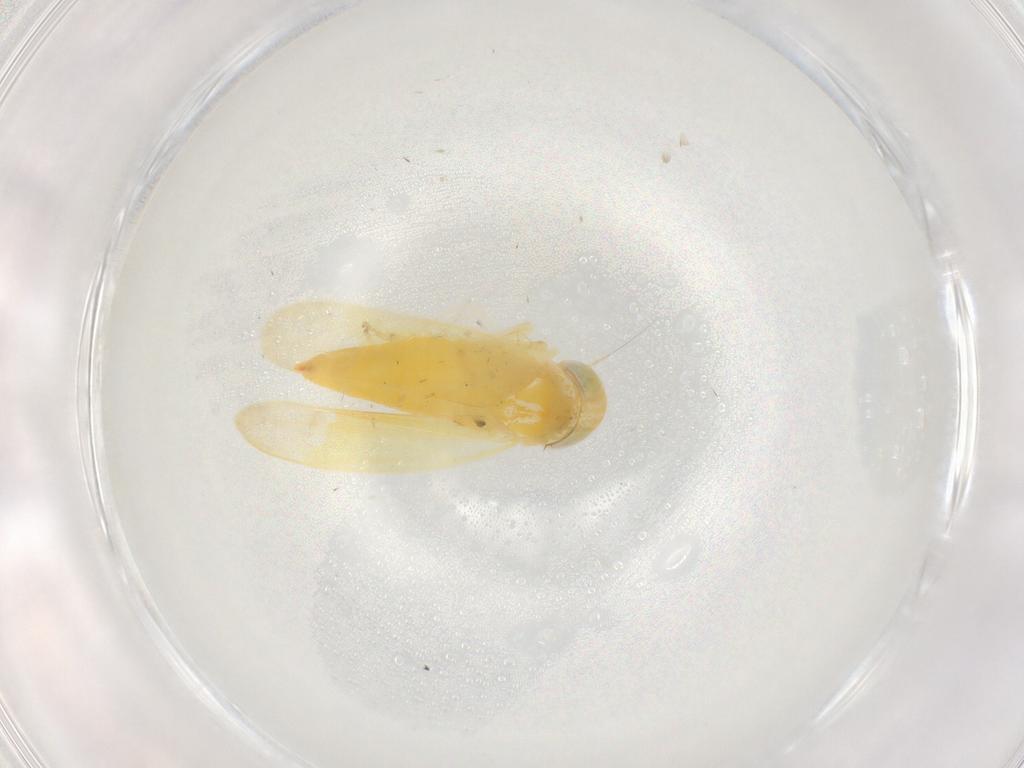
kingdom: Animalia
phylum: Arthropoda
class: Insecta
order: Hemiptera
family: Cicadellidae
